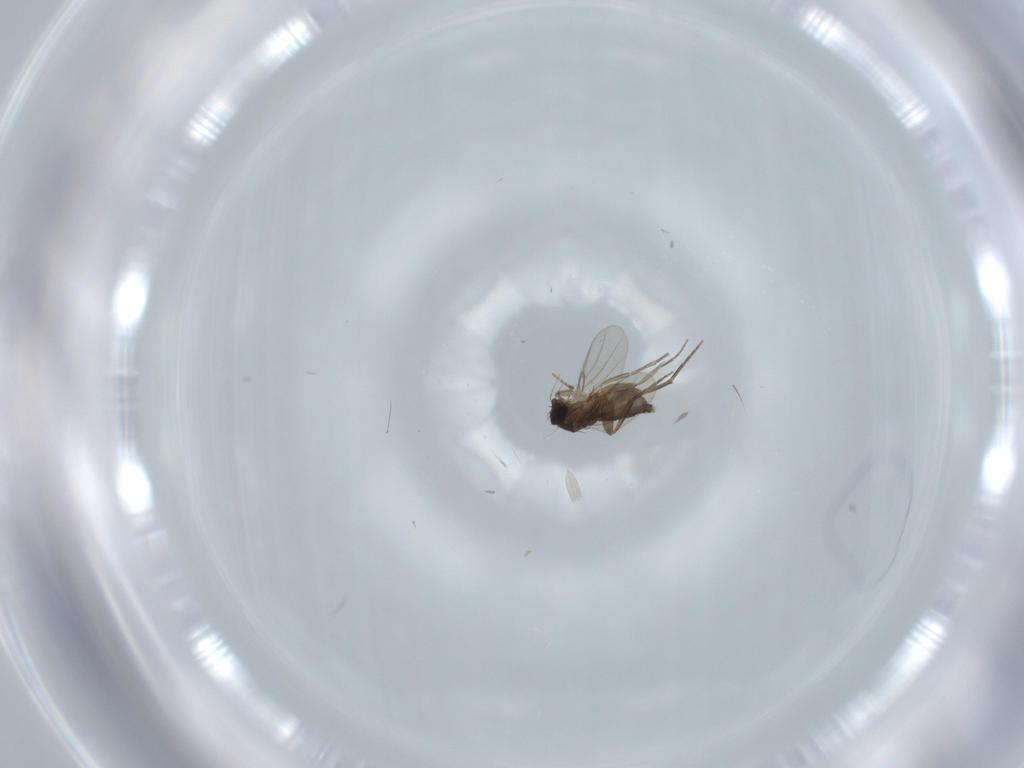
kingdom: Animalia
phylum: Arthropoda
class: Insecta
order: Diptera
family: Phoridae
